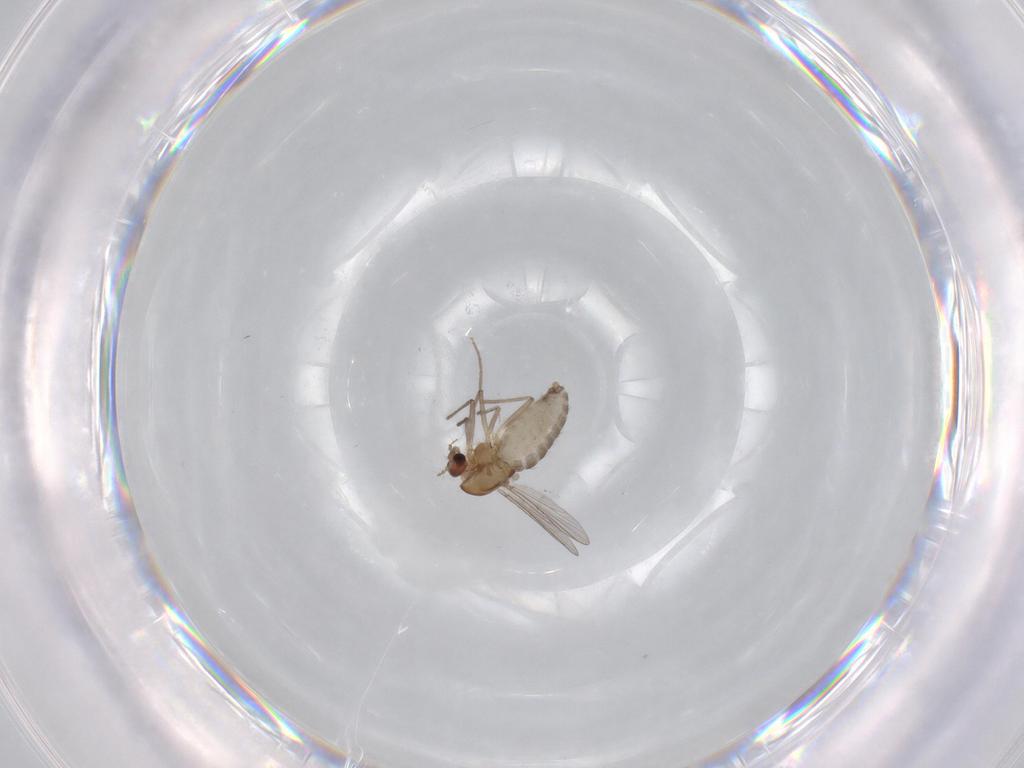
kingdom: Animalia
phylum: Arthropoda
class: Insecta
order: Diptera
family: Chironomidae
